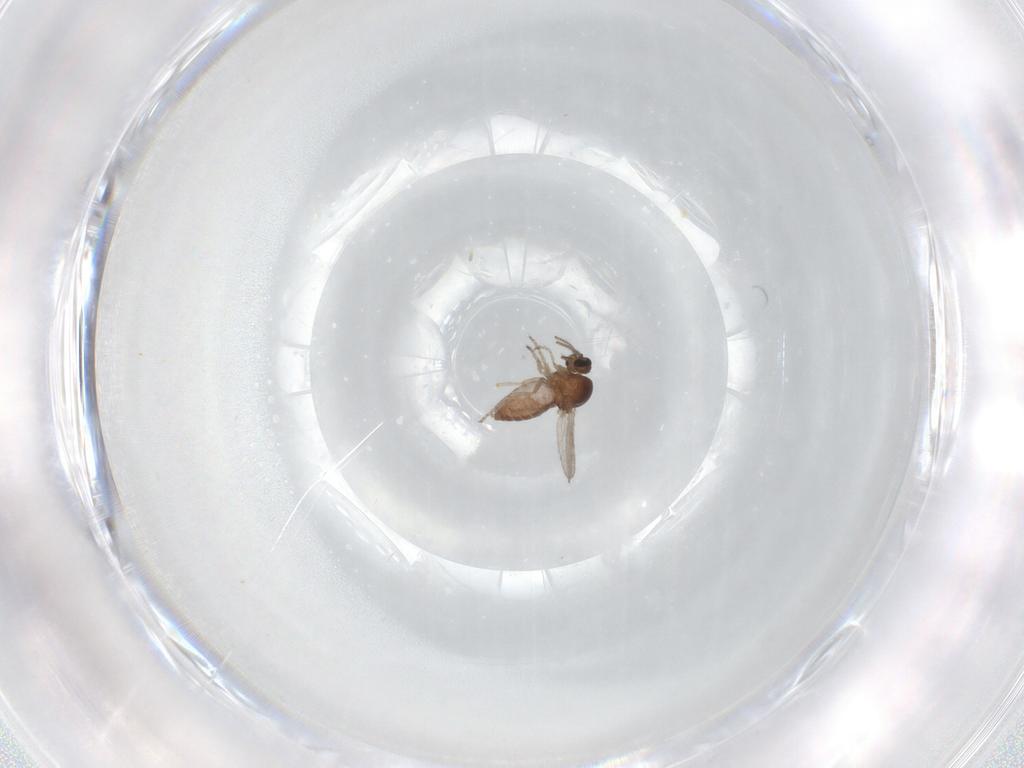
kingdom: Animalia
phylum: Arthropoda
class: Insecta
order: Diptera
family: Ceratopogonidae
